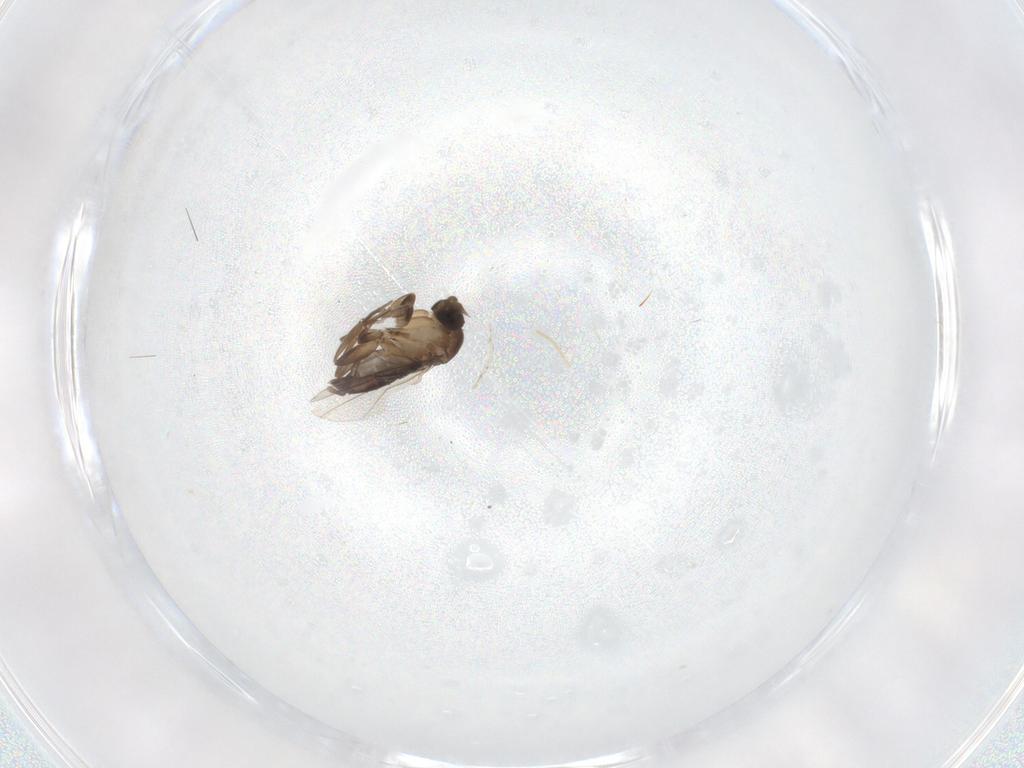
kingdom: Animalia
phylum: Arthropoda
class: Insecta
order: Diptera
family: Phoridae
